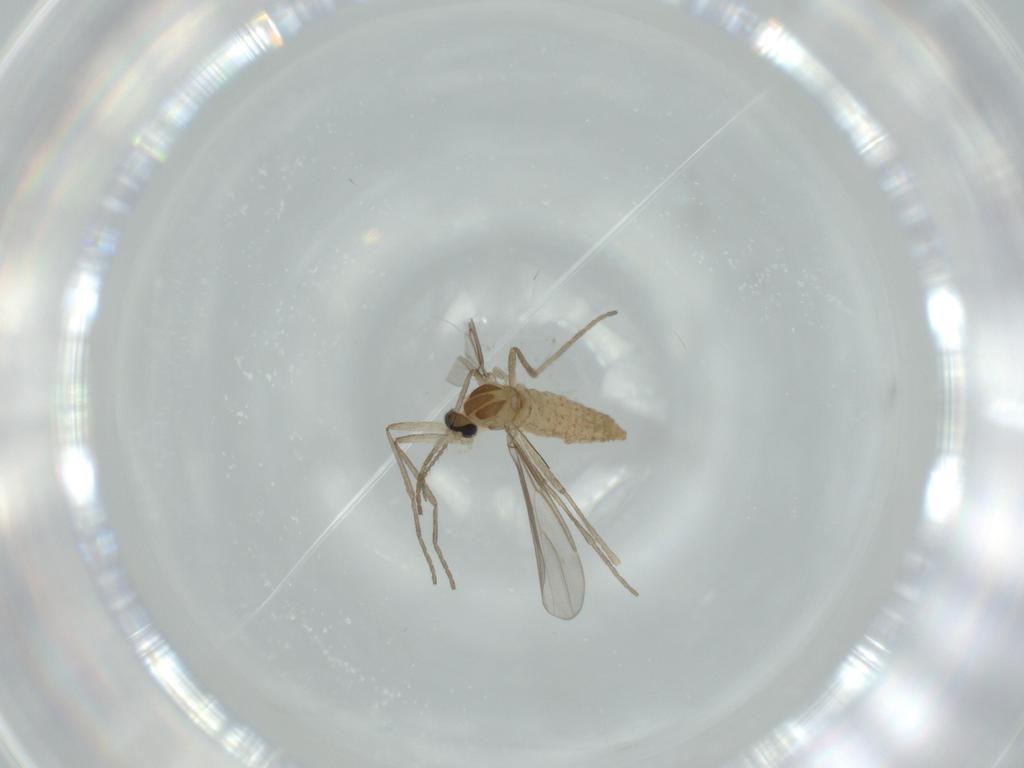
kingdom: Animalia
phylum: Arthropoda
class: Insecta
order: Diptera
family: Cecidomyiidae
